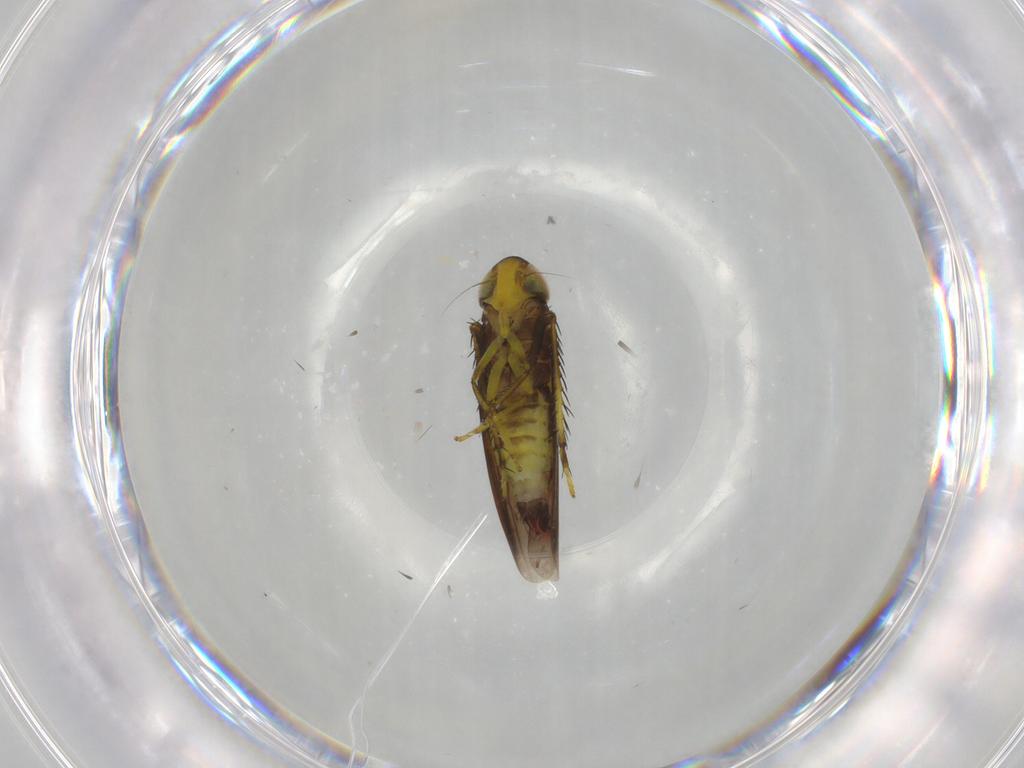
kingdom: Animalia
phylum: Arthropoda
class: Insecta
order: Hemiptera
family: Cicadellidae
